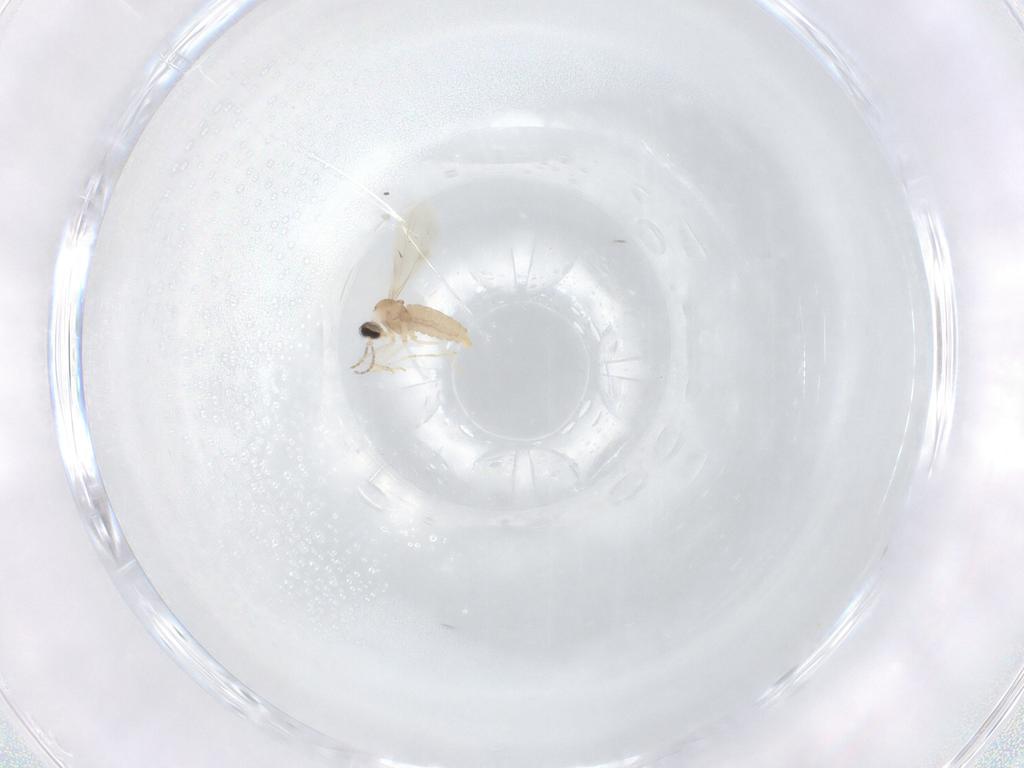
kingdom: Animalia
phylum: Arthropoda
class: Insecta
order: Diptera
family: Cecidomyiidae
